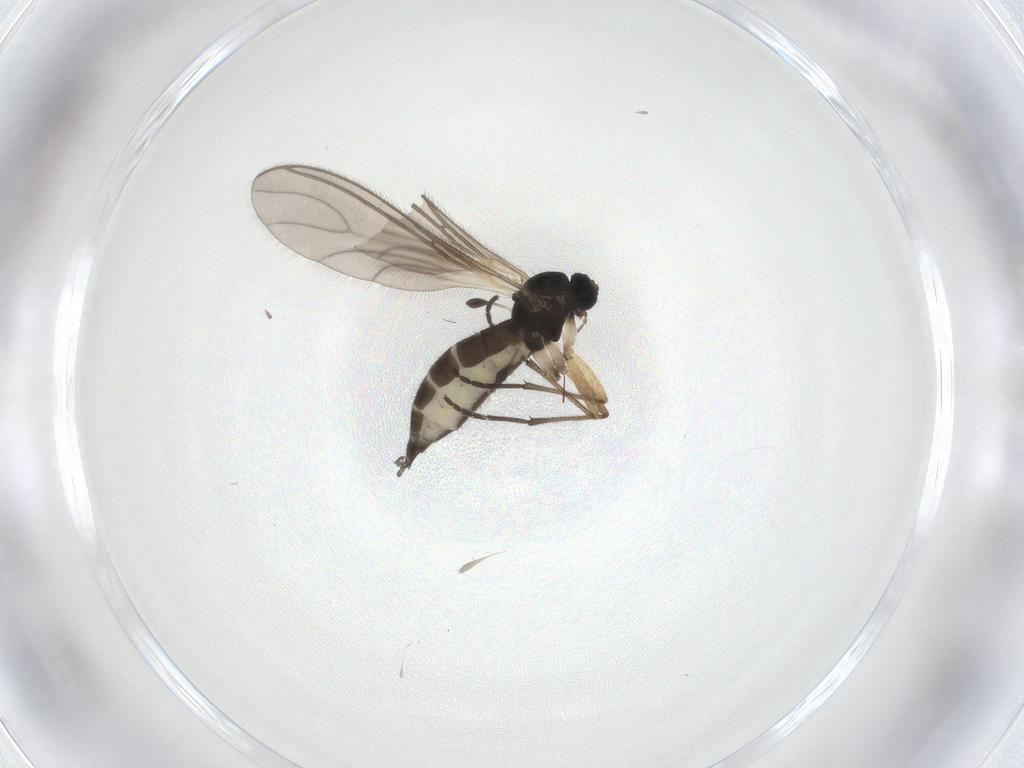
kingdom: Animalia
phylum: Arthropoda
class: Insecta
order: Diptera
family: Sciaridae
